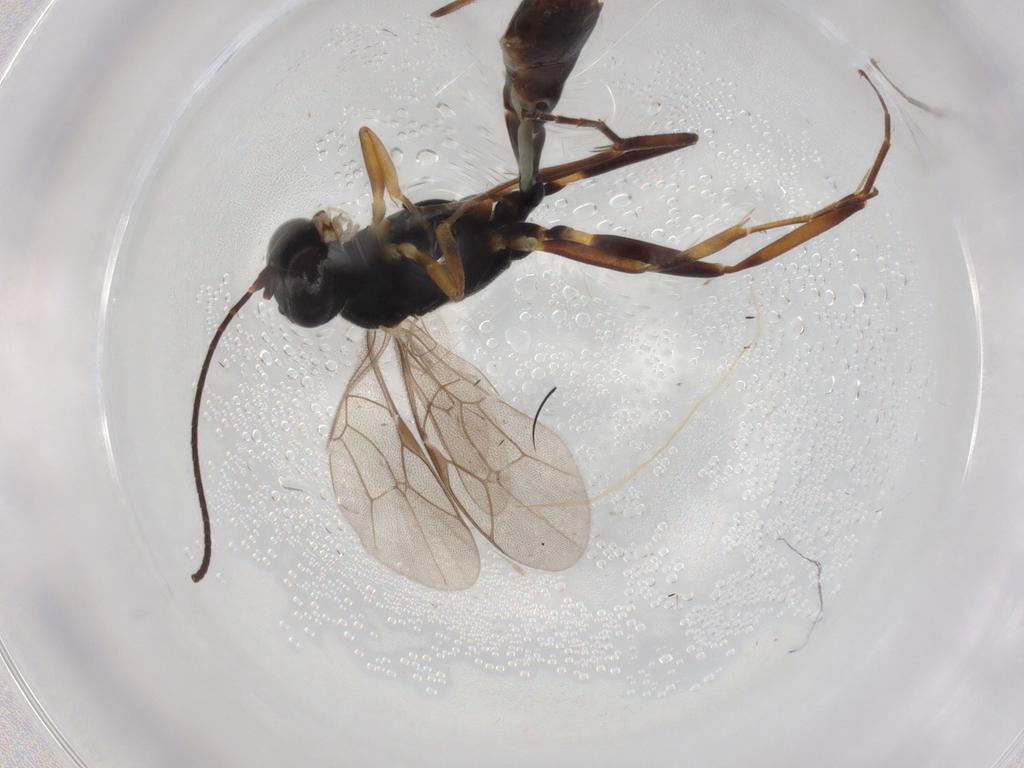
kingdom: Animalia
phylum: Arthropoda
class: Insecta
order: Hymenoptera
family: Ichneumonidae
